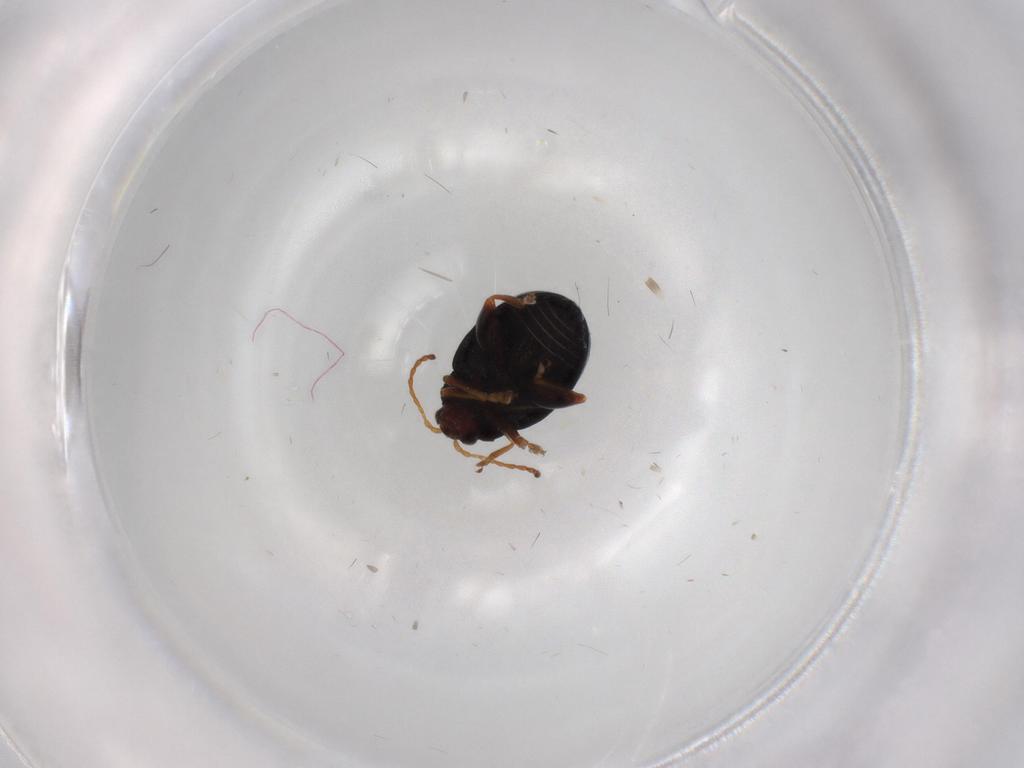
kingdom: Animalia
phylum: Arthropoda
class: Insecta
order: Coleoptera
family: Carabidae
